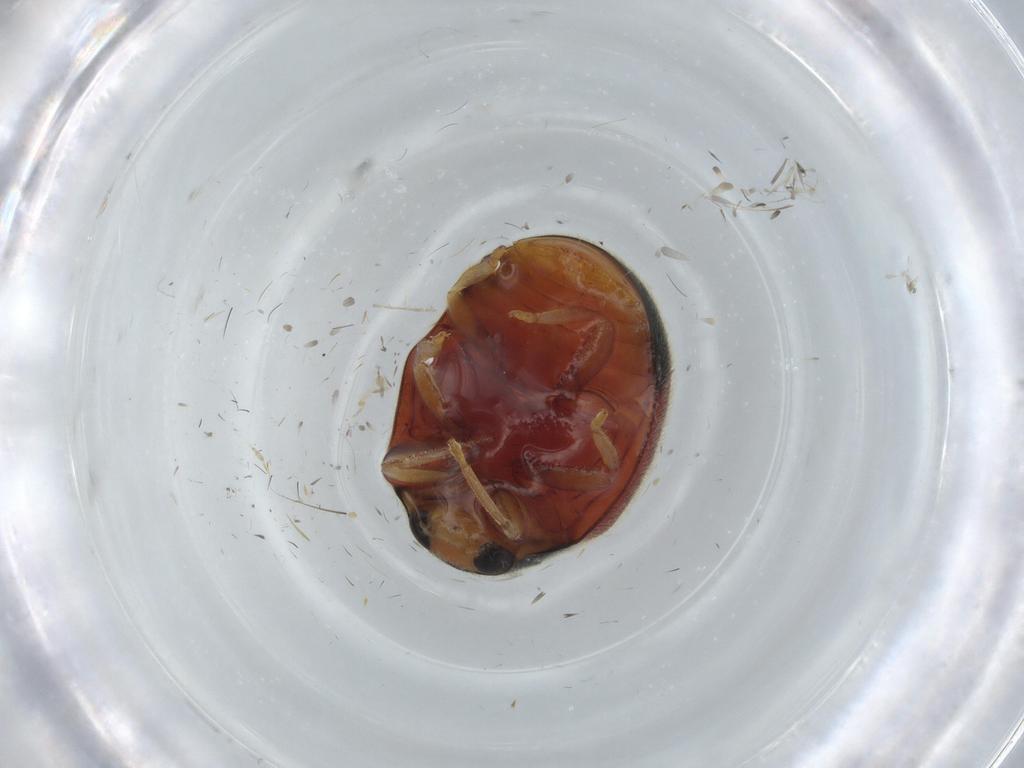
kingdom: Animalia
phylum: Arthropoda
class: Insecta
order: Coleoptera
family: Coccinellidae
